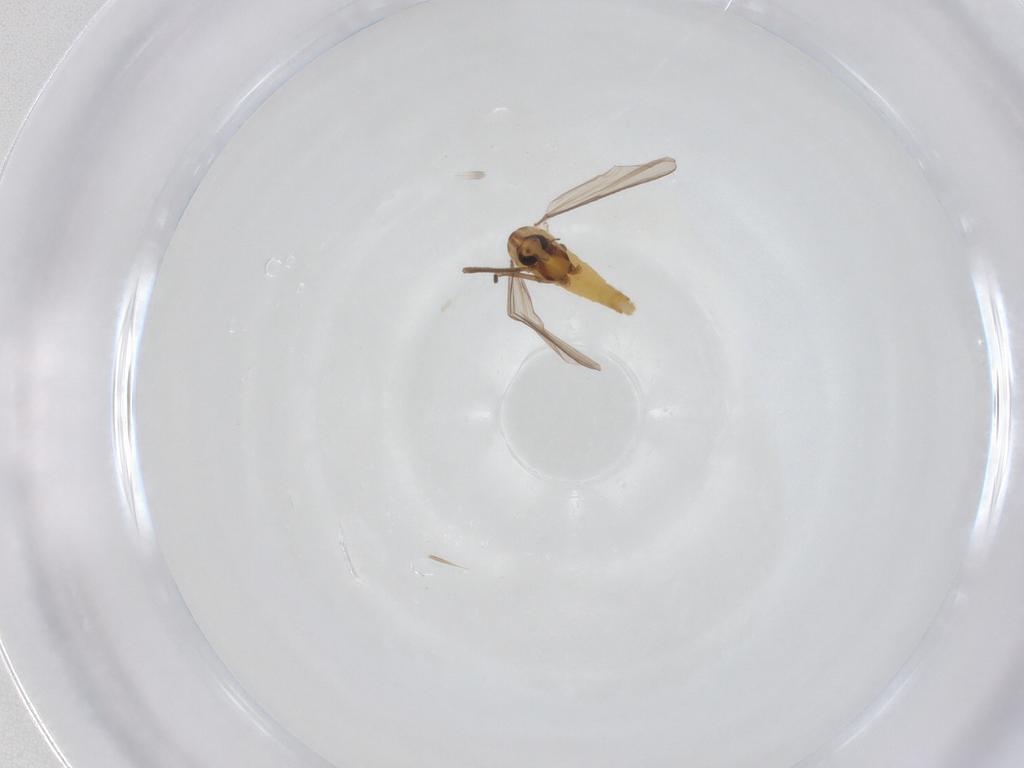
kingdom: Animalia
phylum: Arthropoda
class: Insecta
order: Diptera
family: Chironomidae
